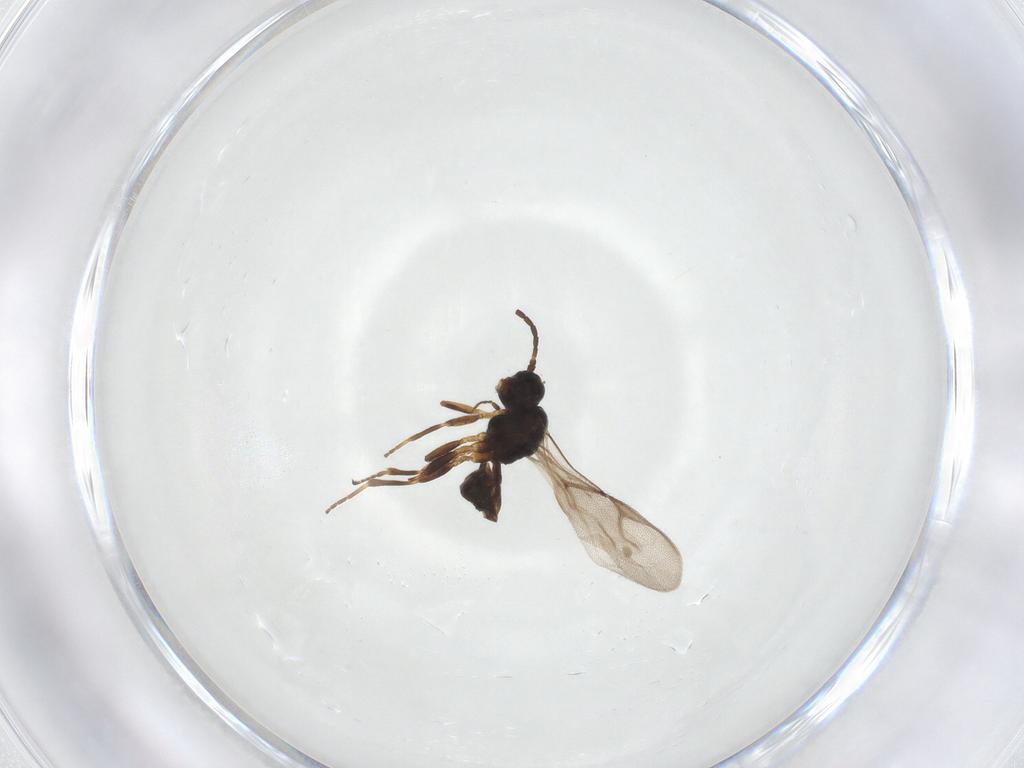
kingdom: Animalia
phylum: Arthropoda
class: Insecta
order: Hymenoptera
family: Braconidae
